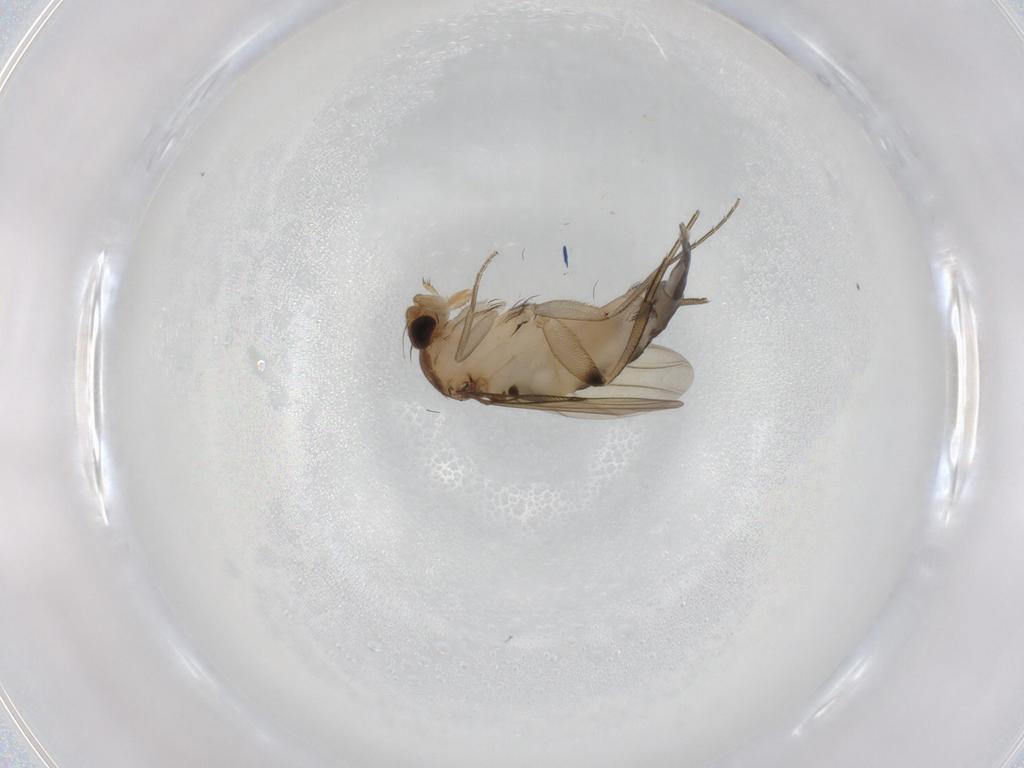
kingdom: Animalia
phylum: Arthropoda
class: Insecta
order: Diptera
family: Phoridae
